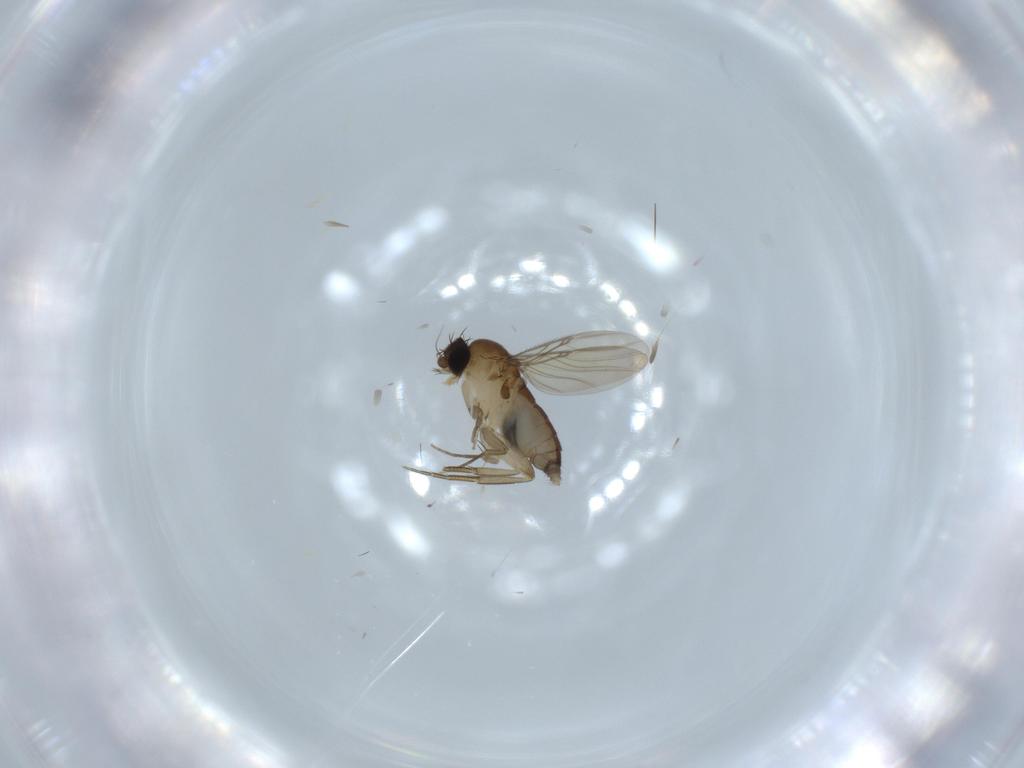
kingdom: Animalia
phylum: Arthropoda
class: Insecta
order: Diptera
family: Phoridae
